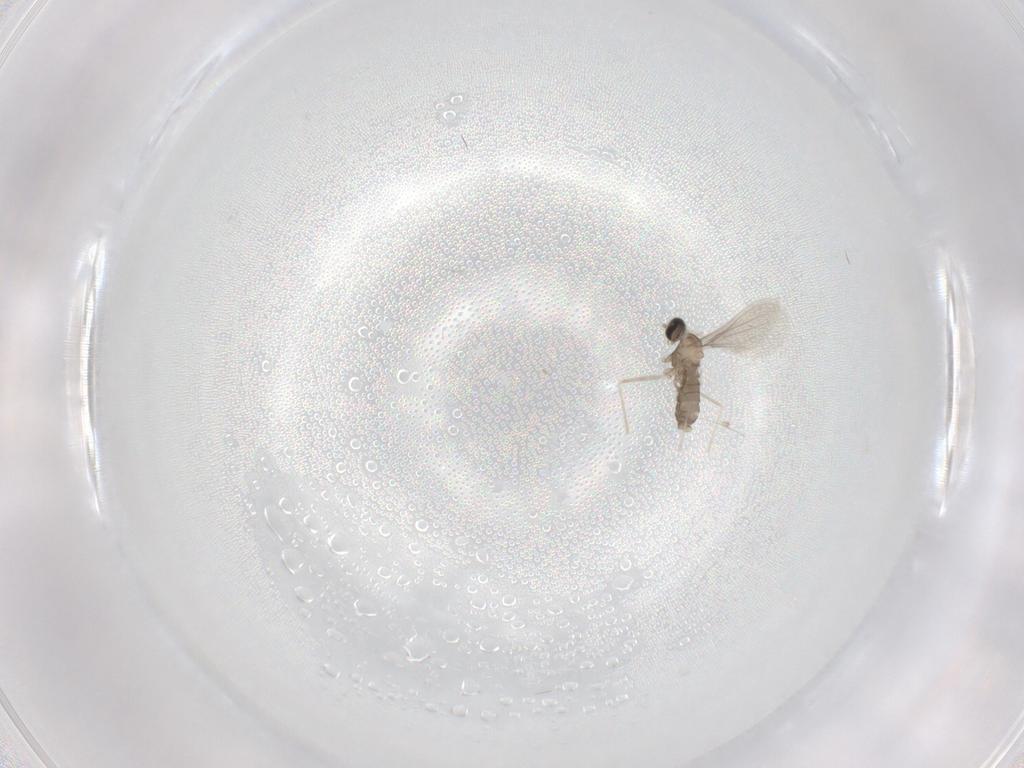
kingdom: Animalia
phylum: Arthropoda
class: Insecta
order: Diptera
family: Cecidomyiidae
